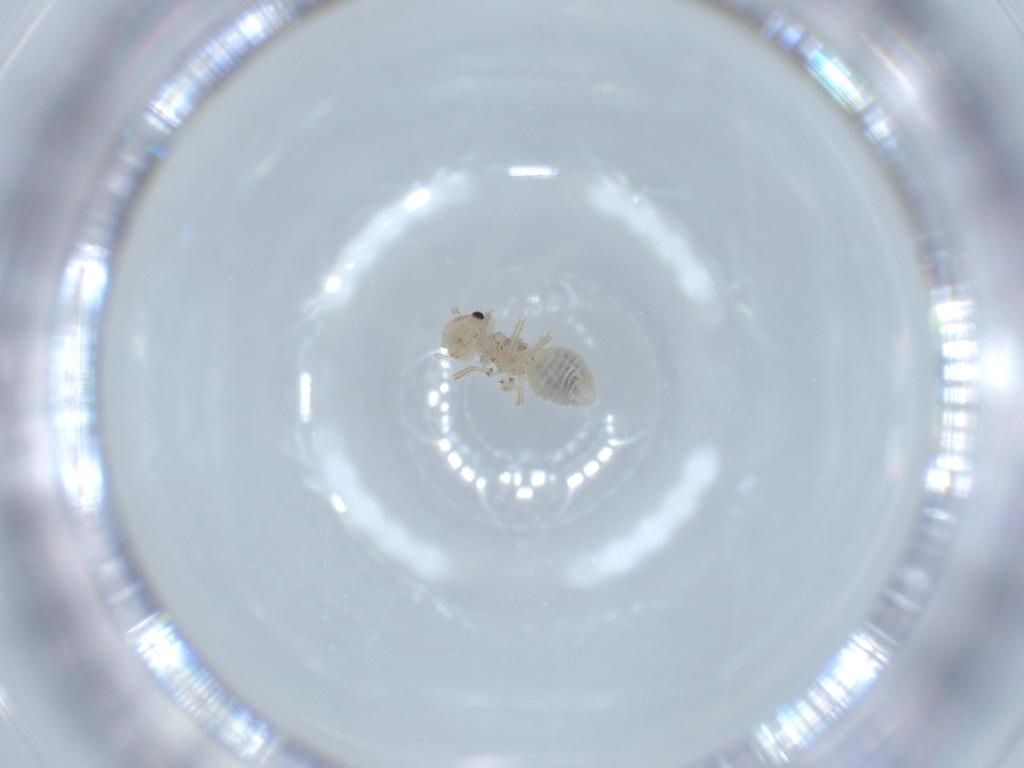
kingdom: Animalia
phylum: Arthropoda
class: Insecta
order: Psocodea
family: Amphipsocidae
